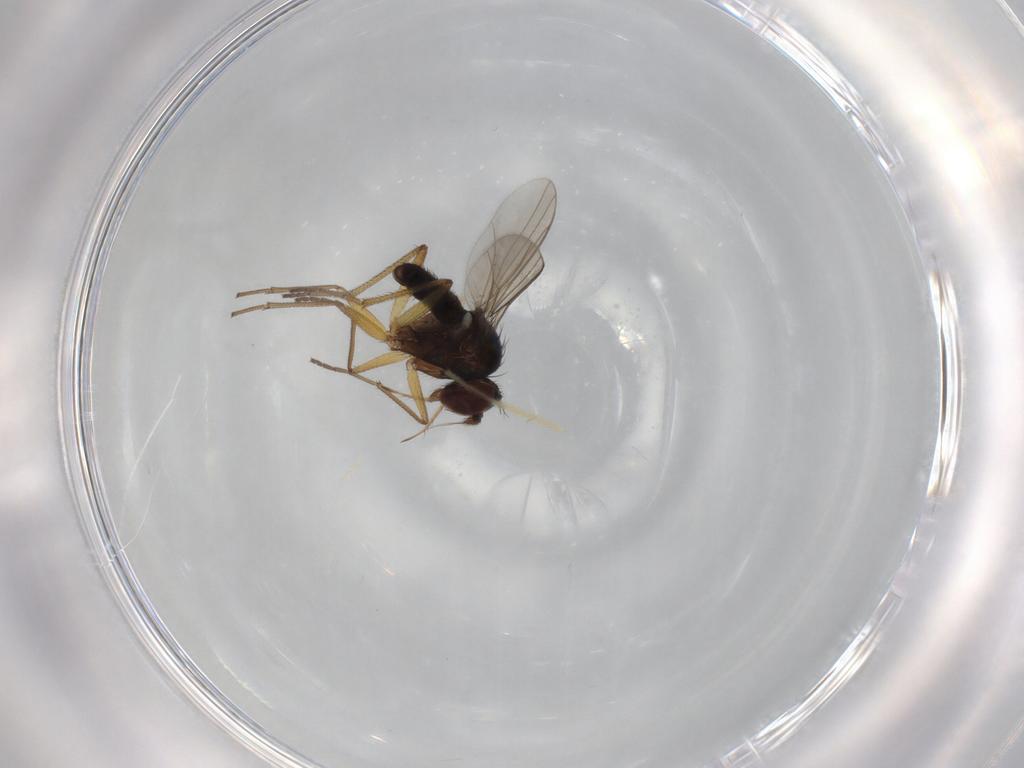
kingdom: Animalia
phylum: Arthropoda
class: Insecta
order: Diptera
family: Dolichopodidae
